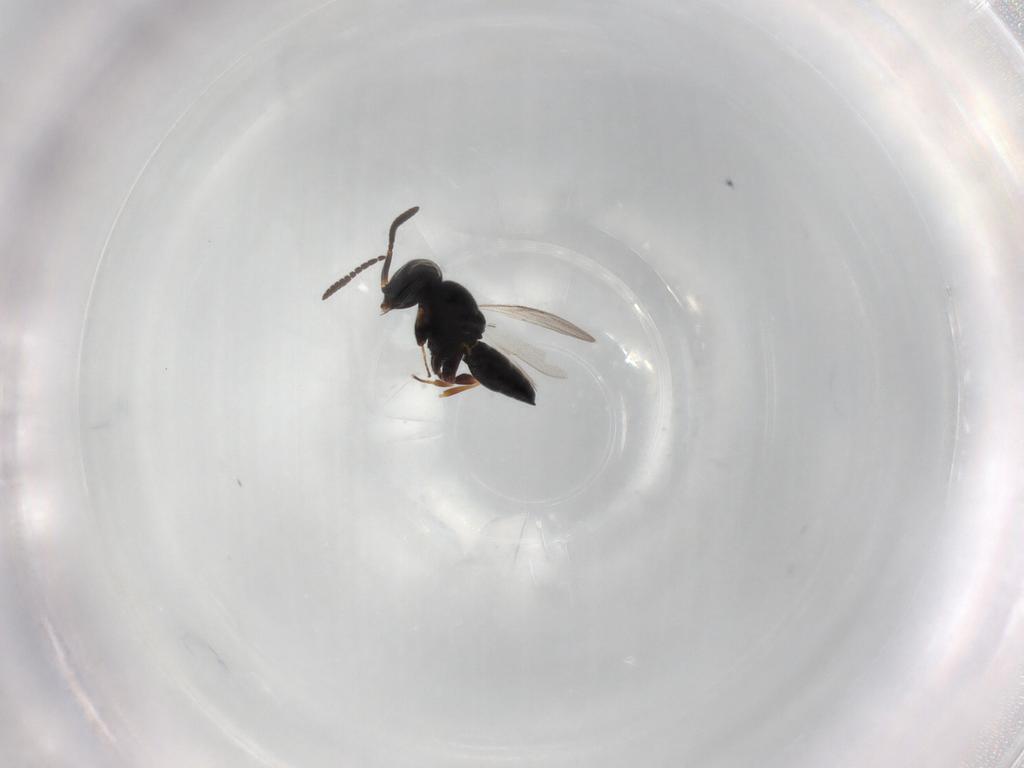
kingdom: Animalia
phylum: Arthropoda
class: Insecta
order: Hymenoptera
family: Scelionidae
